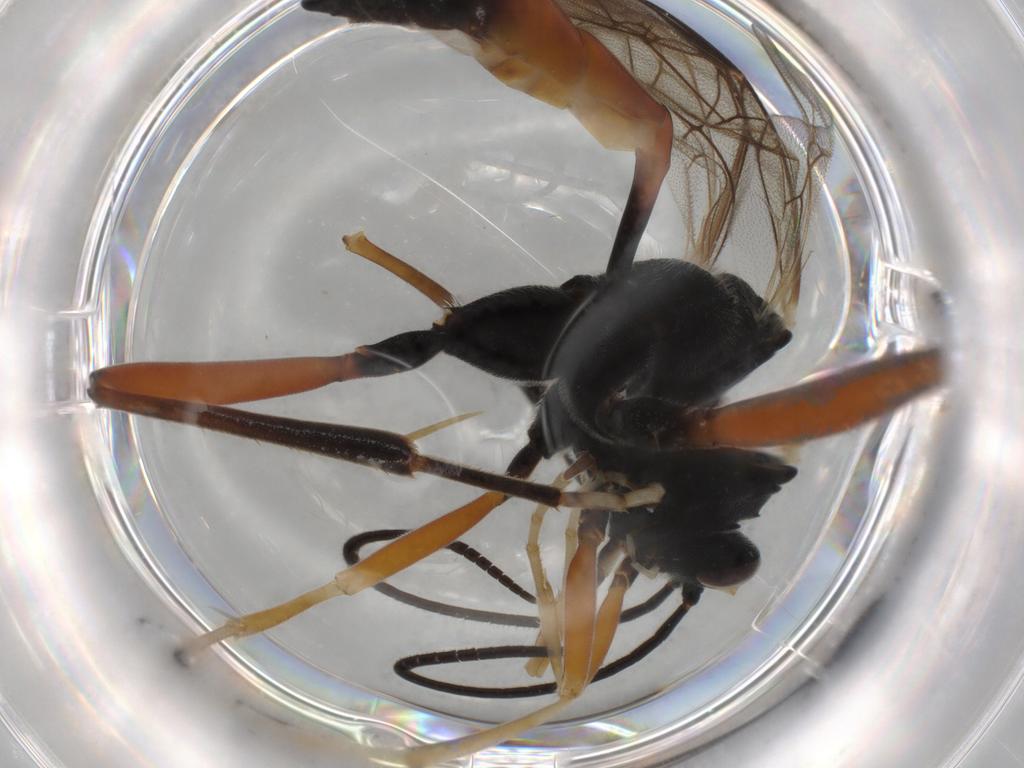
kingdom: Animalia
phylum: Arthropoda
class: Insecta
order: Hymenoptera
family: Ichneumonidae
